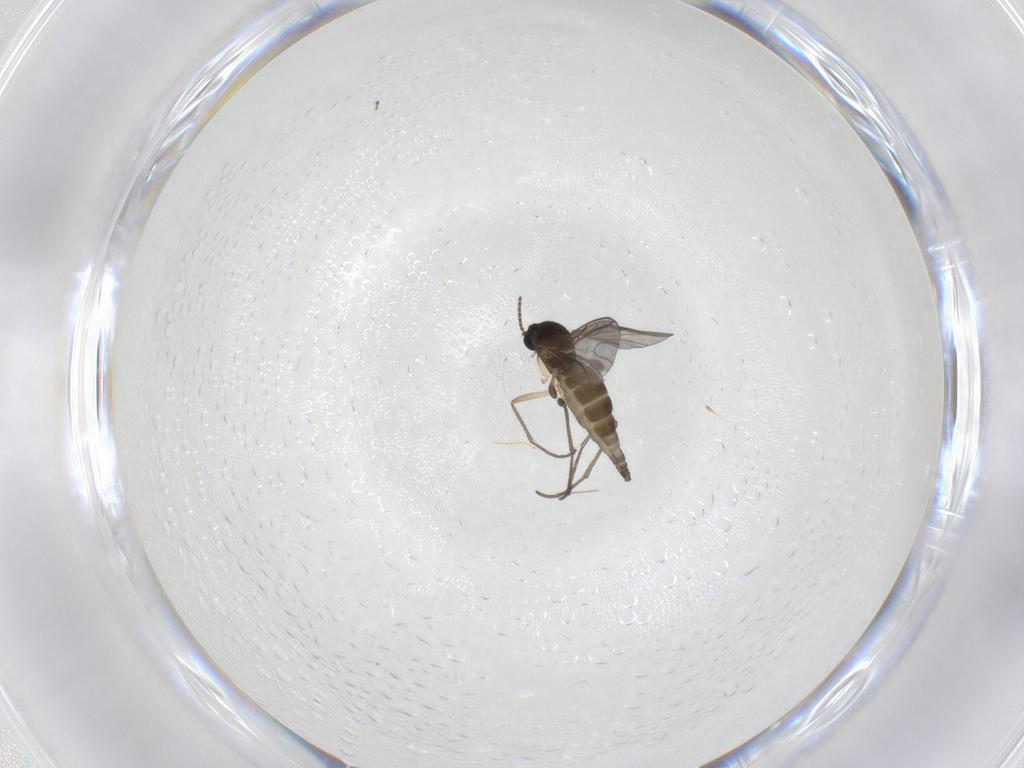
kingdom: Animalia
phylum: Arthropoda
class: Insecta
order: Diptera
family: Sciaridae
